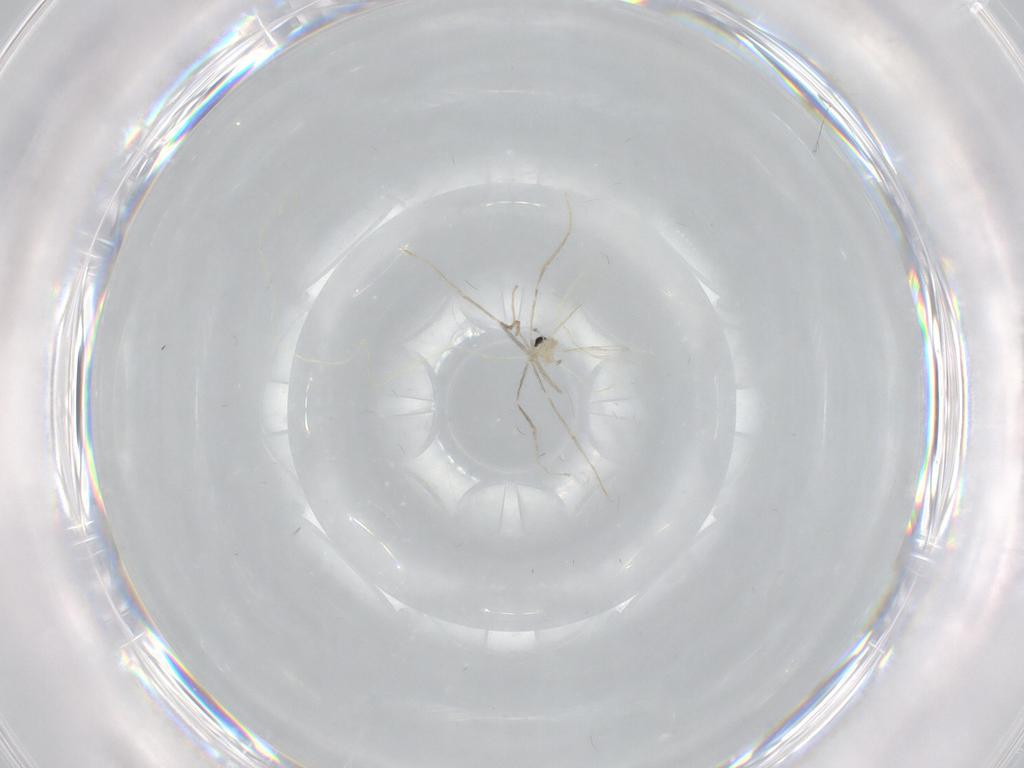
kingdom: Animalia
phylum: Arthropoda
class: Insecta
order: Diptera
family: Cecidomyiidae
